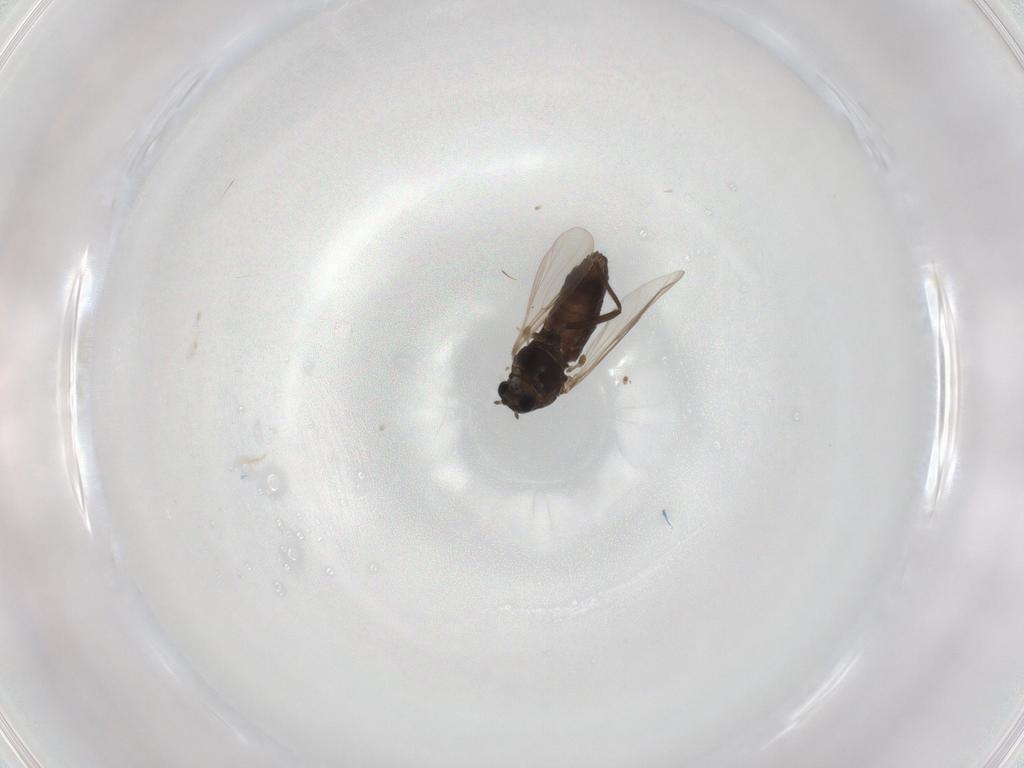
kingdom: Animalia
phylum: Arthropoda
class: Insecta
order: Diptera
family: Chironomidae
